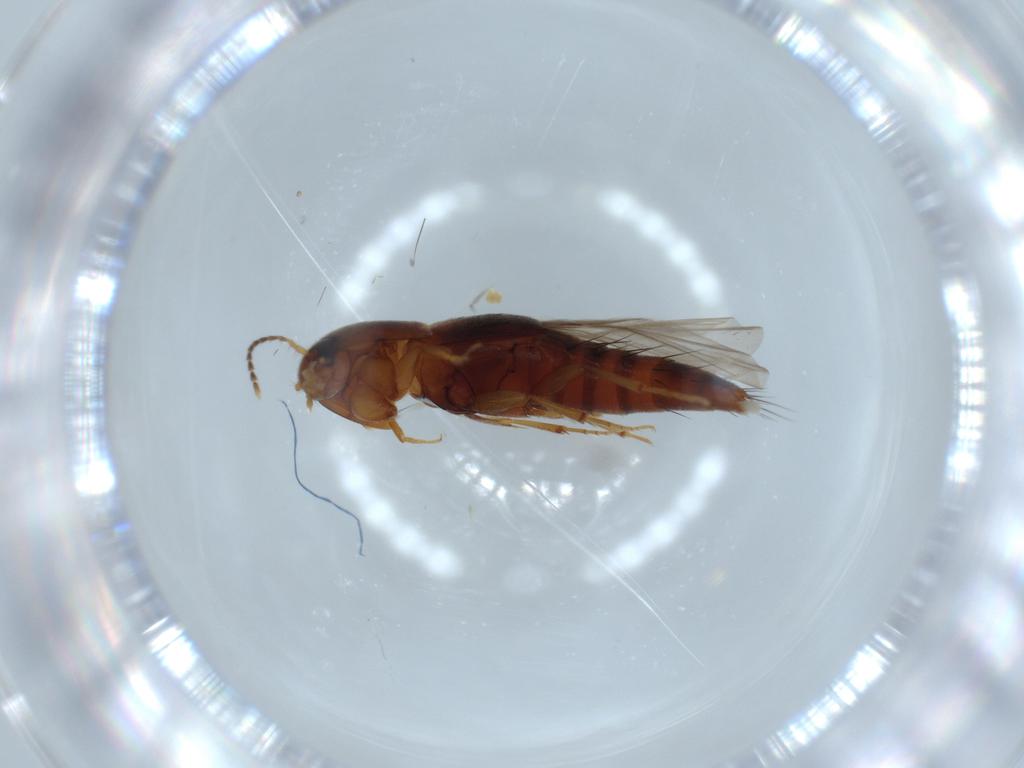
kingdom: Animalia
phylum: Arthropoda
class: Insecta
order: Coleoptera
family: Staphylinidae
